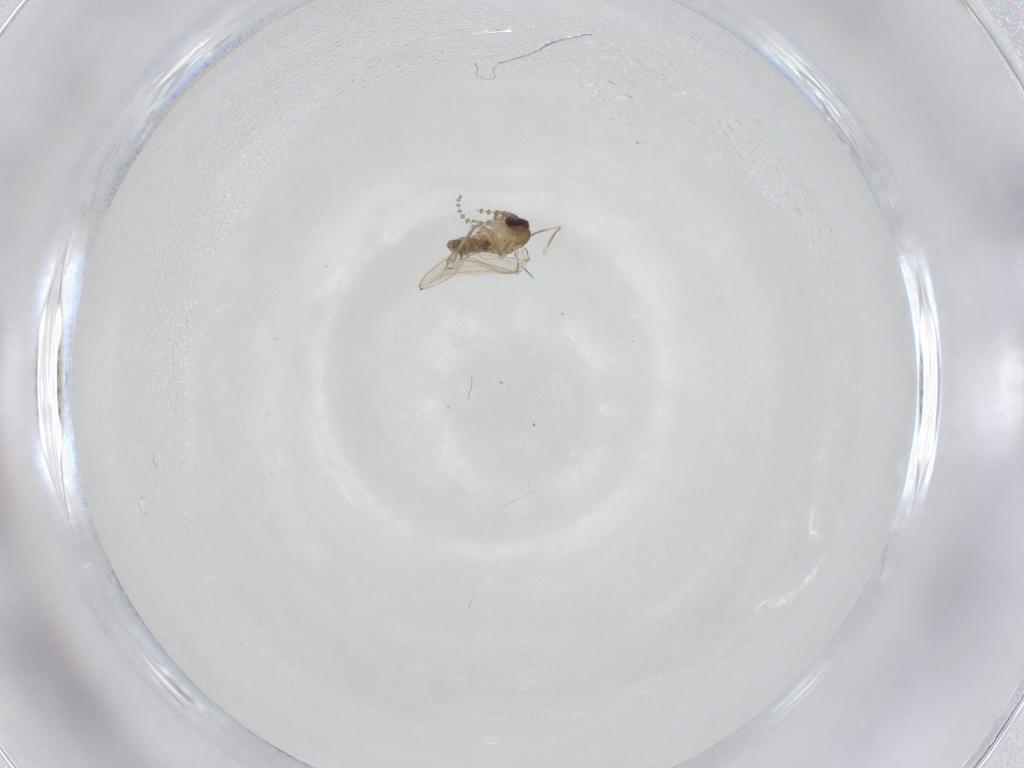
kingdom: Animalia
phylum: Arthropoda
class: Insecta
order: Diptera
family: Psychodidae
